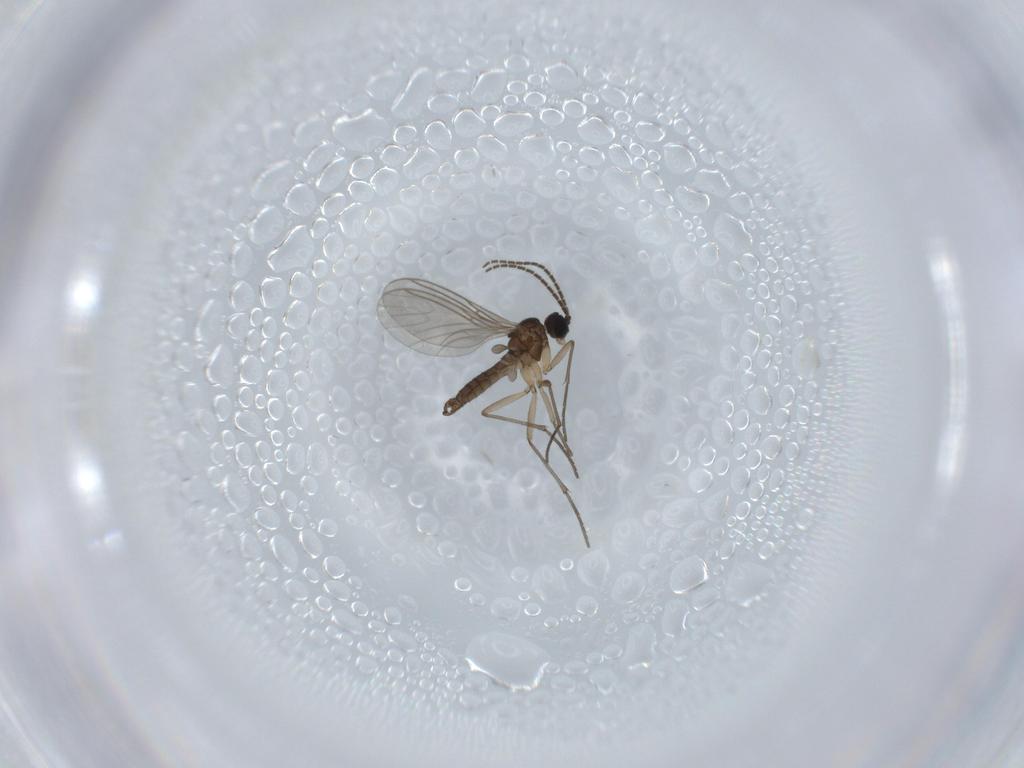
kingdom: Animalia
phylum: Arthropoda
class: Insecta
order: Diptera
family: Sciaridae
